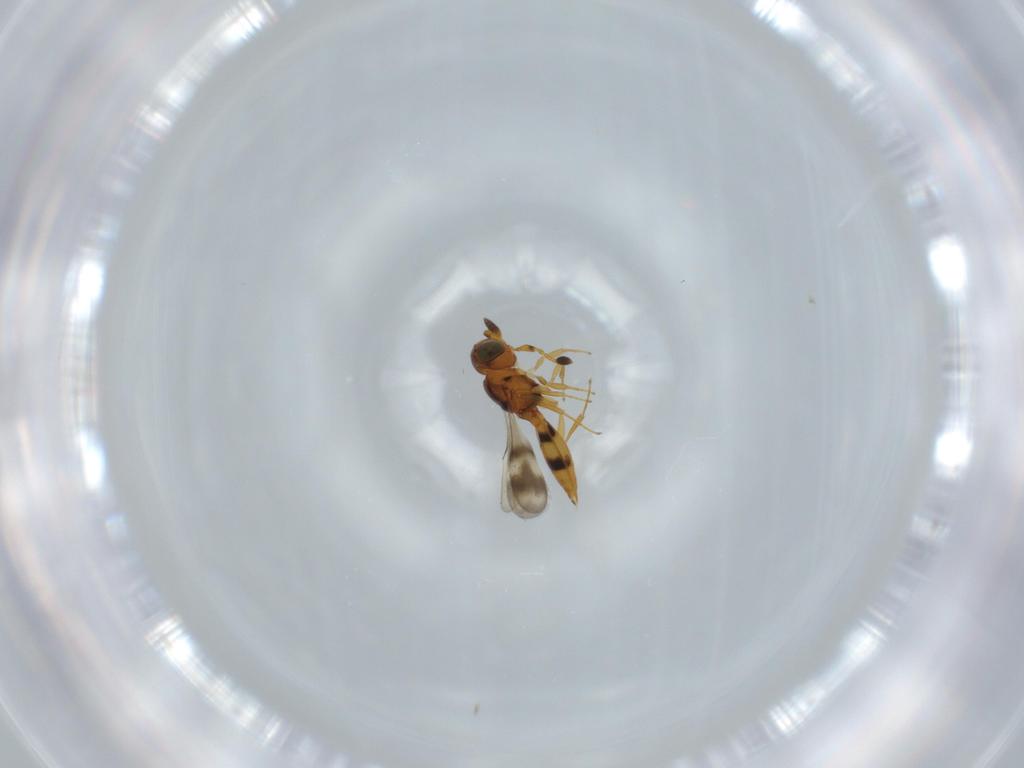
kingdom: Animalia
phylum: Arthropoda
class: Insecta
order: Hymenoptera
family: Scelionidae
